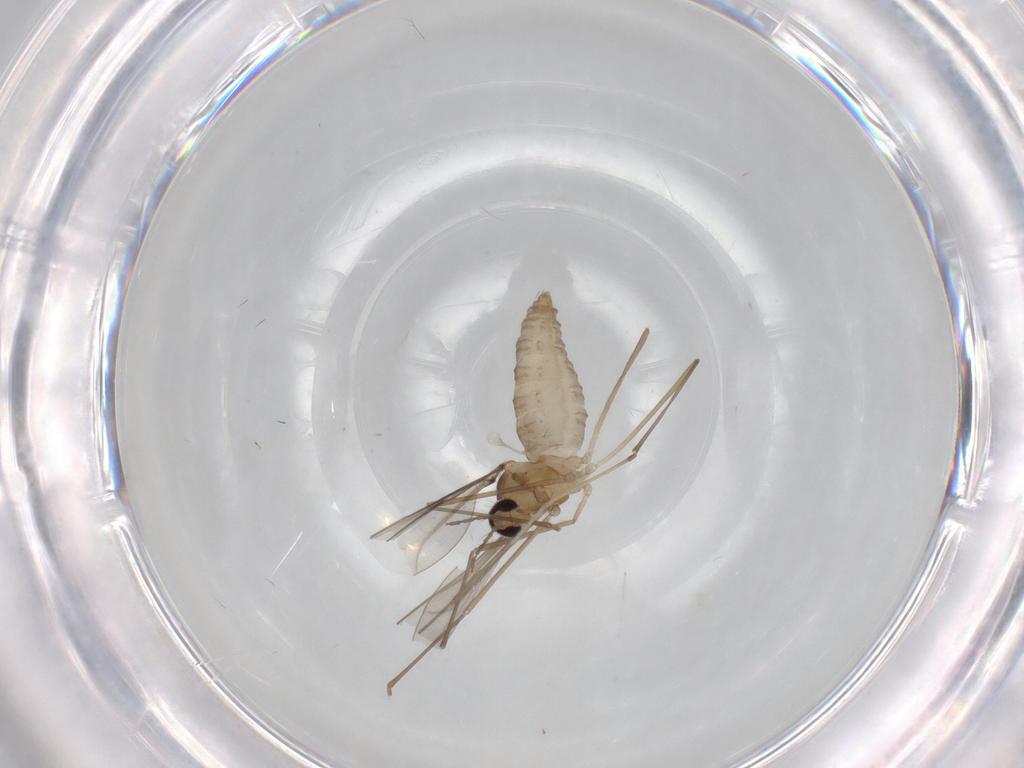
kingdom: Animalia
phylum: Arthropoda
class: Insecta
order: Diptera
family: Cecidomyiidae
